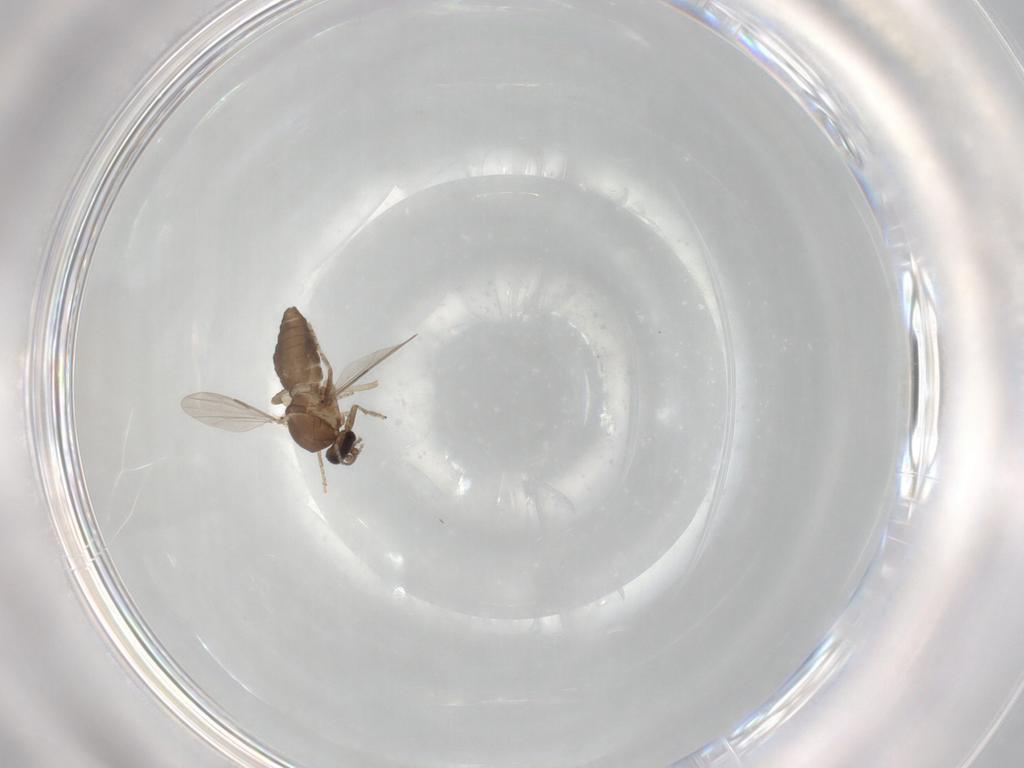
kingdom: Animalia
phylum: Arthropoda
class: Insecta
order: Diptera
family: Ceratopogonidae
